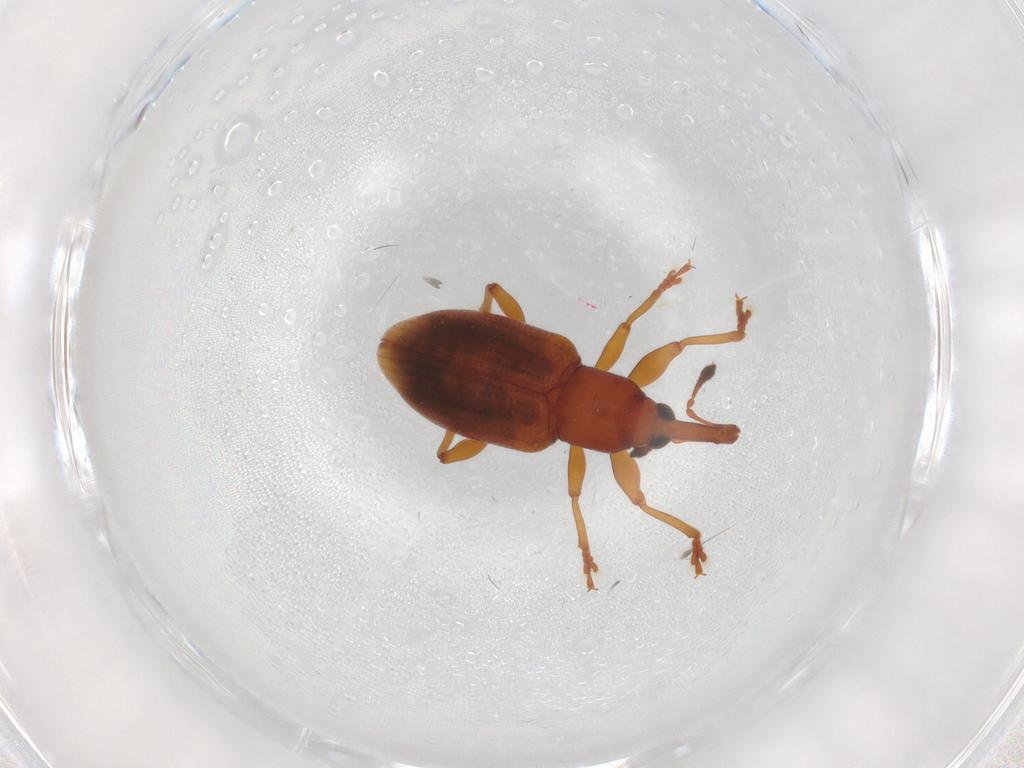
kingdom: Animalia
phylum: Arthropoda
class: Insecta
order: Coleoptera
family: Curculionidae
